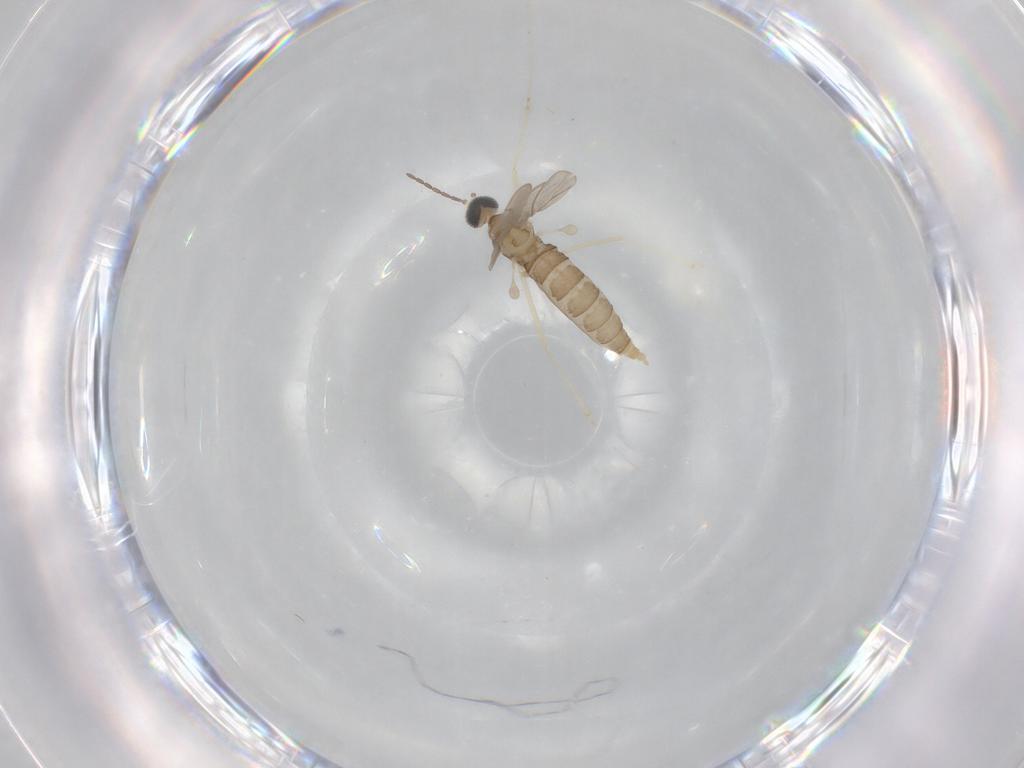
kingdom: Animalia
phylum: Arthropoda
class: Insecta
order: Diptera
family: Cecidomyiidae
